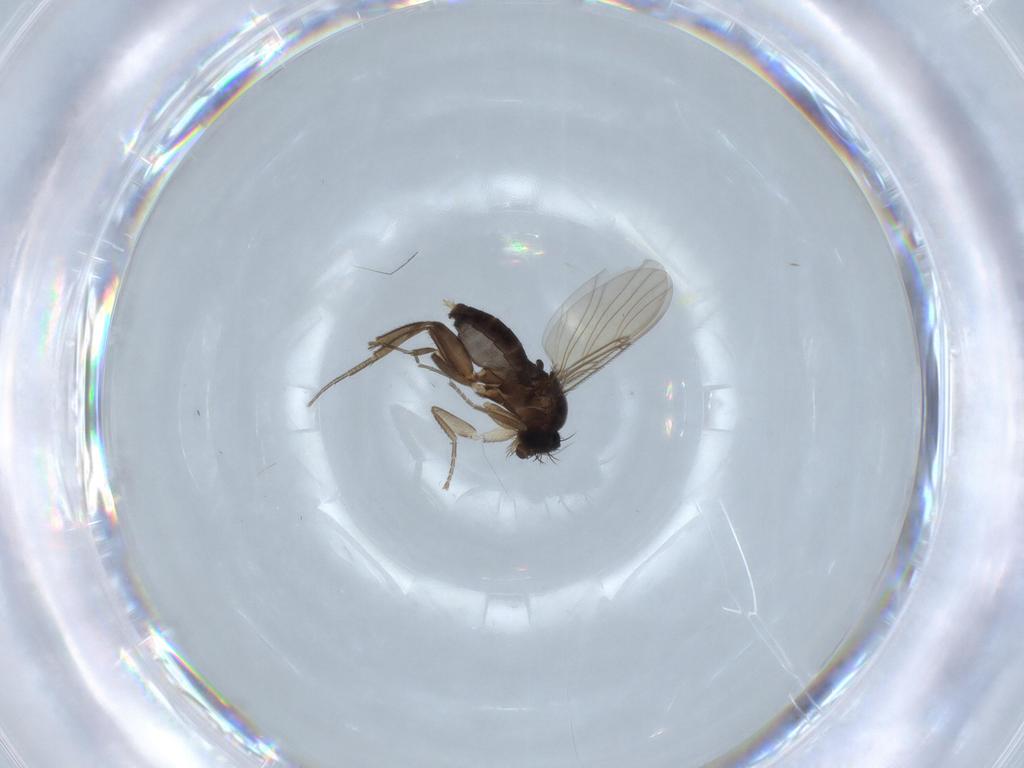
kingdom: Animalia
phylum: Arthropoda
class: Insecta
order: Diptera
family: Phoridae
